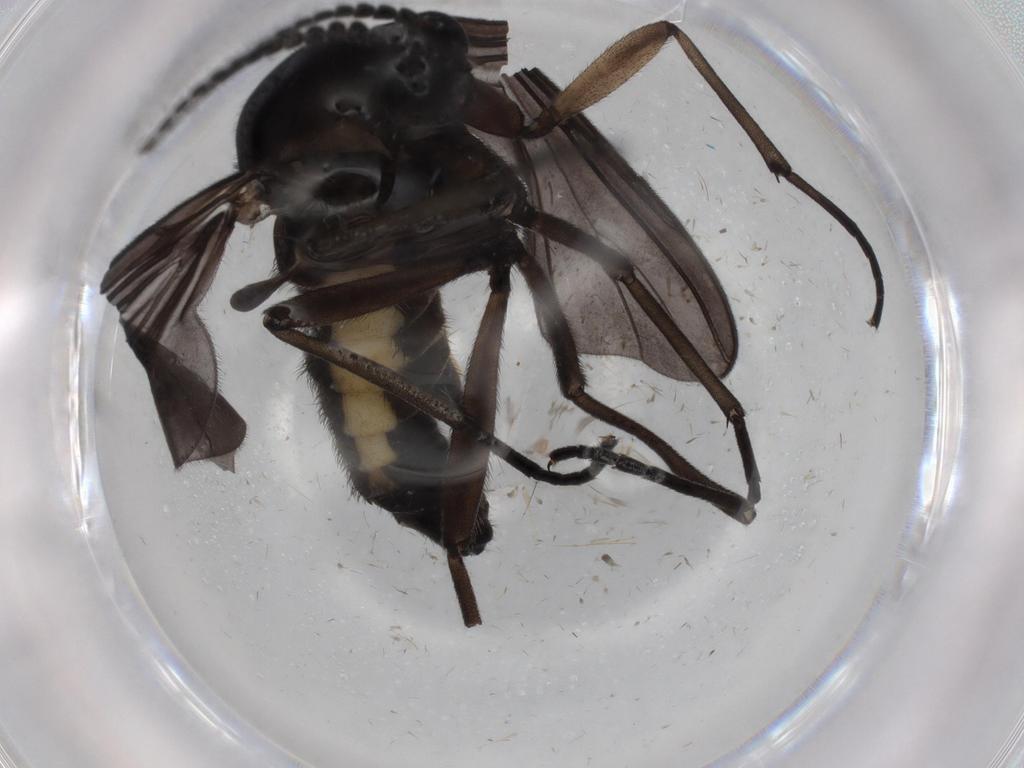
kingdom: Animalia
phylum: Arthropoda
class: Insecta
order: Diptera
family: Sciaridae
